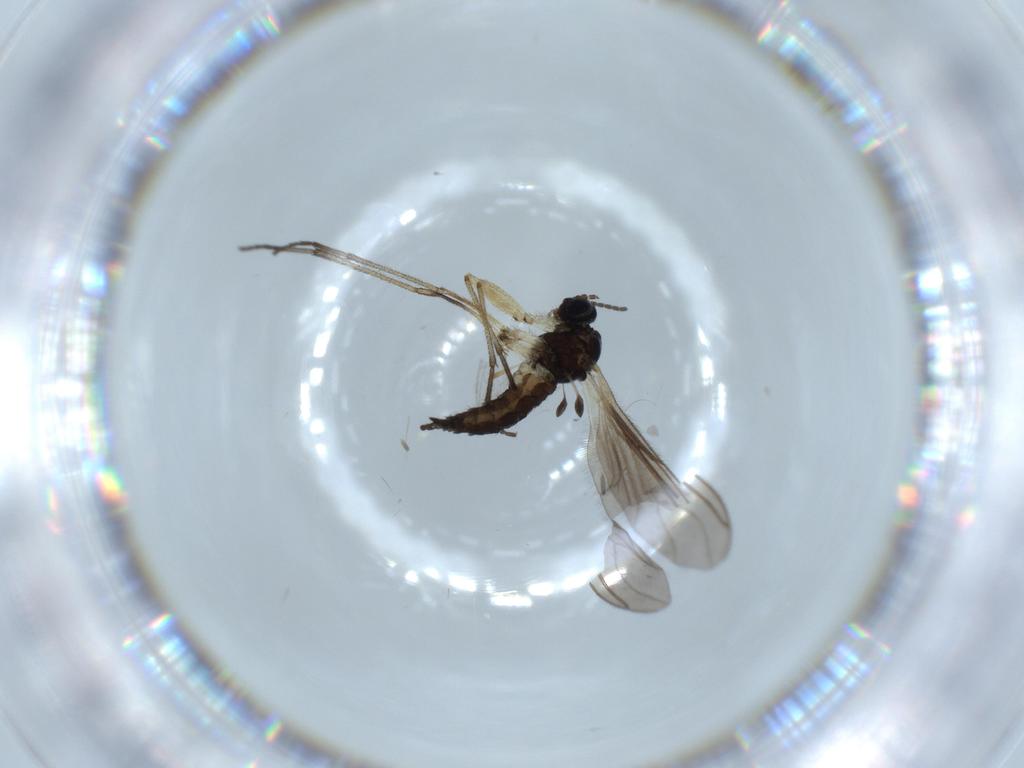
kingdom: Animalia
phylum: Arthropoda
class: Insecta
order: Diptera
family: Sciaridae
